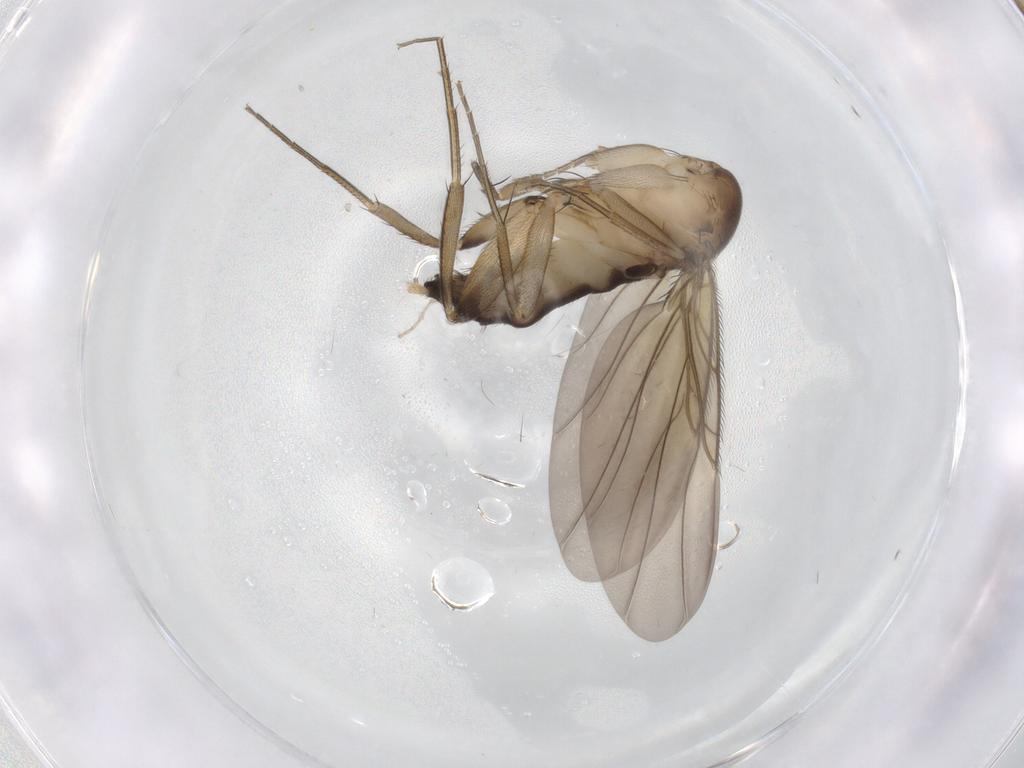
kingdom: Animalia
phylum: Arthropoda
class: Insecta
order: Diptera
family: Phoridae
